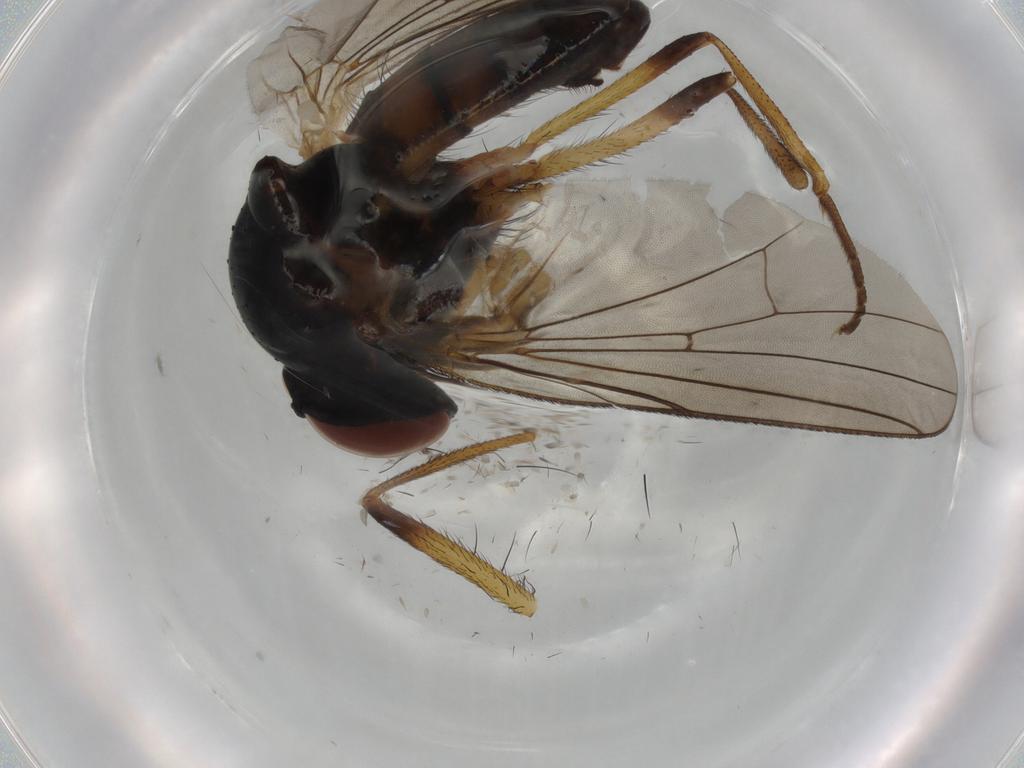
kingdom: Animalia
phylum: Arthropoda
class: Insecta
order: Diptera
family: Anthomyiidae
